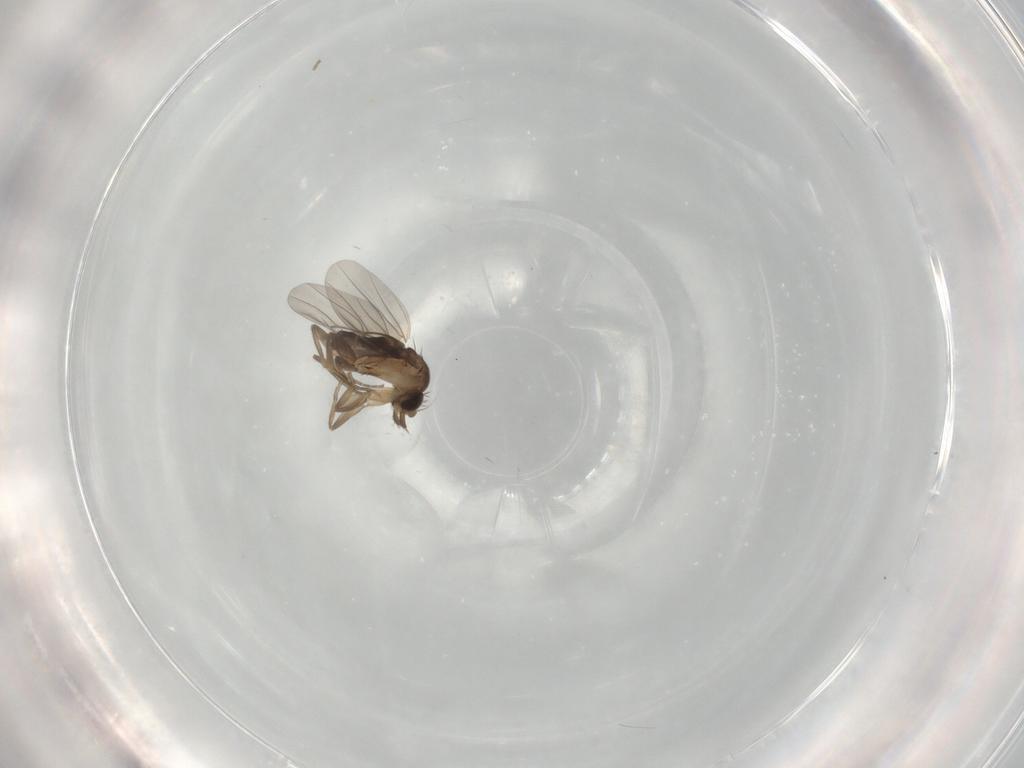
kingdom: Animalia
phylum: Arthropoda
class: Insecta
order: Diptera
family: Phoridae
